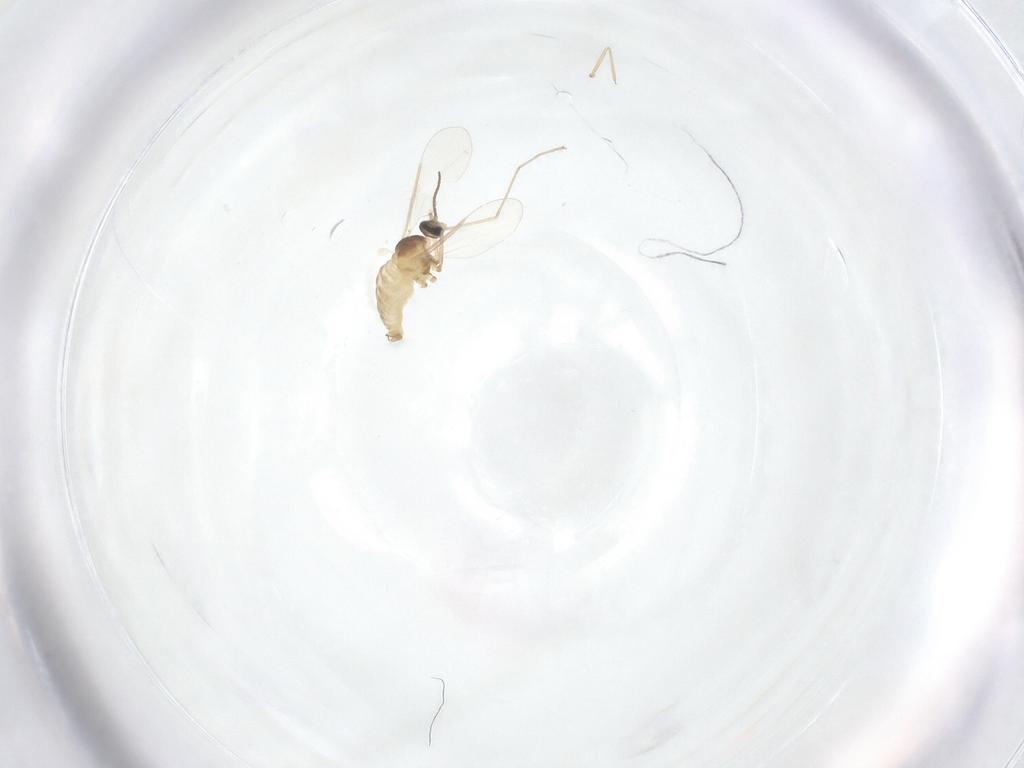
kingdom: Animalia
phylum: Arthropoda
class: Insecta
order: Diptera
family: Cecidomyiidae
